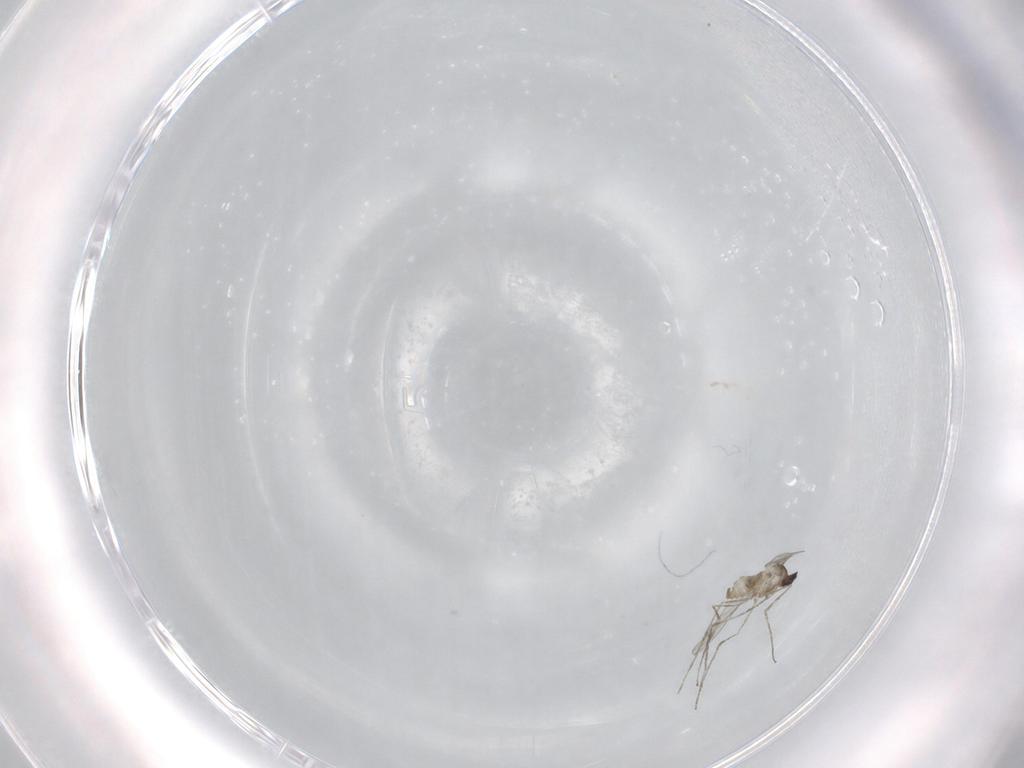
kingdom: Animalia
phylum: Arthropoda
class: Insecta
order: Diptera
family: Cecidomyiidae
